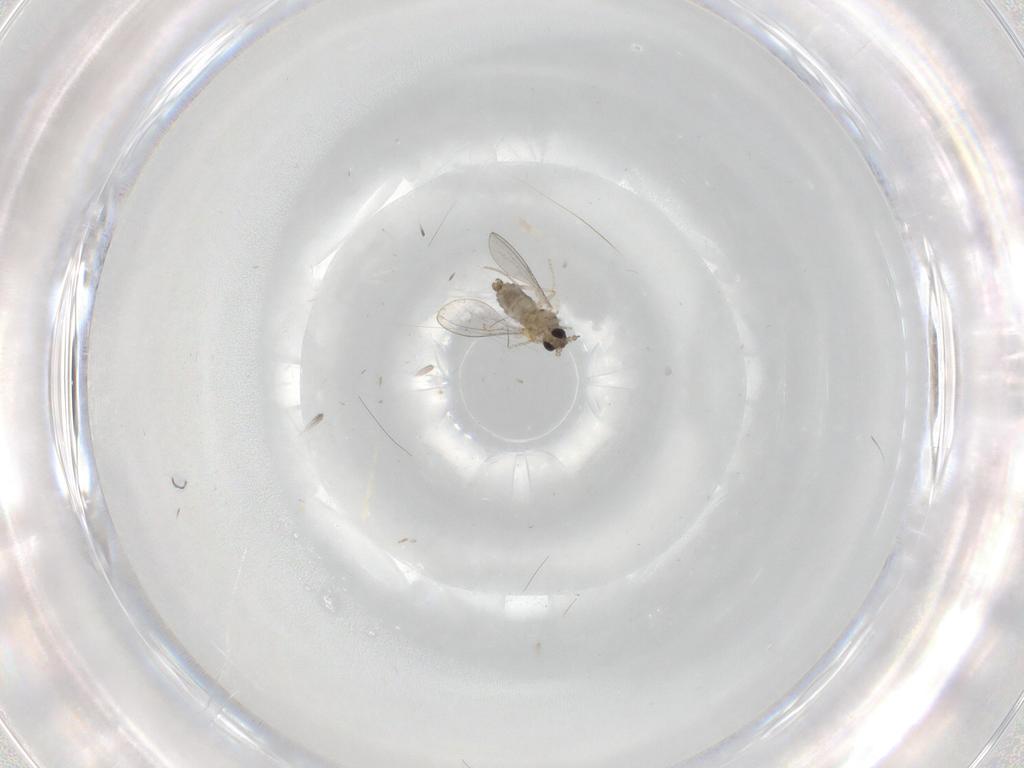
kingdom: Animalia
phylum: Arthropoda
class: Insecta
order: Diptera
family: Cecidomyiidae
